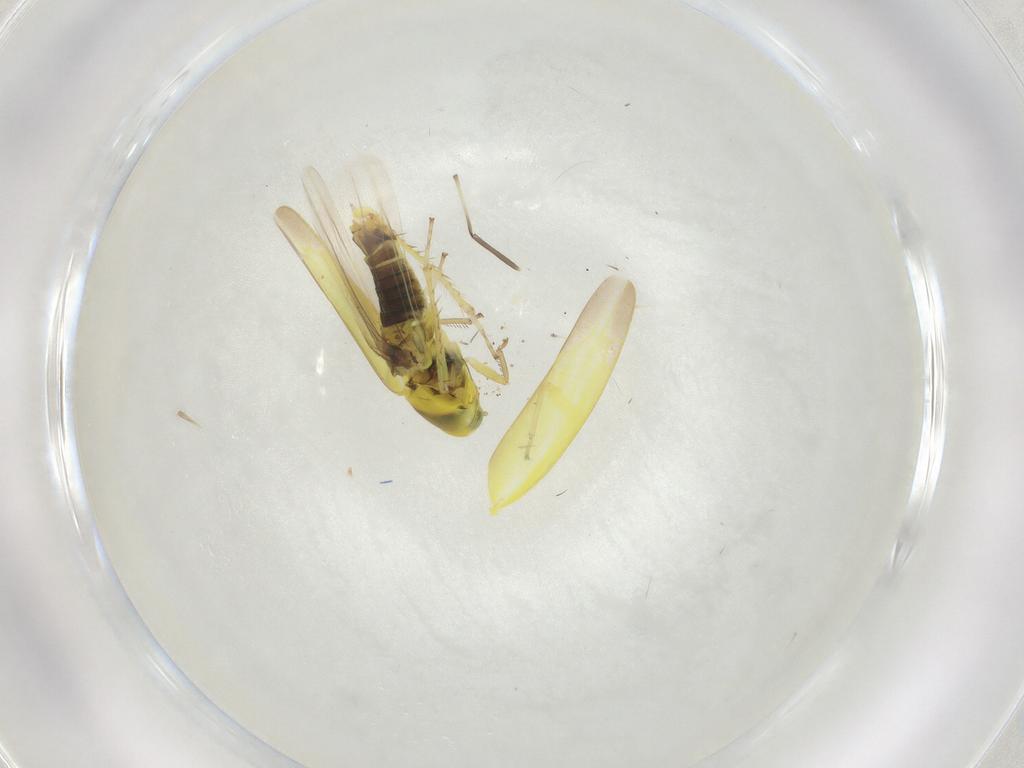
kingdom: Animalia
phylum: Arthropoda
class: Insecta
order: Hemiptera
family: Cicadellidae
